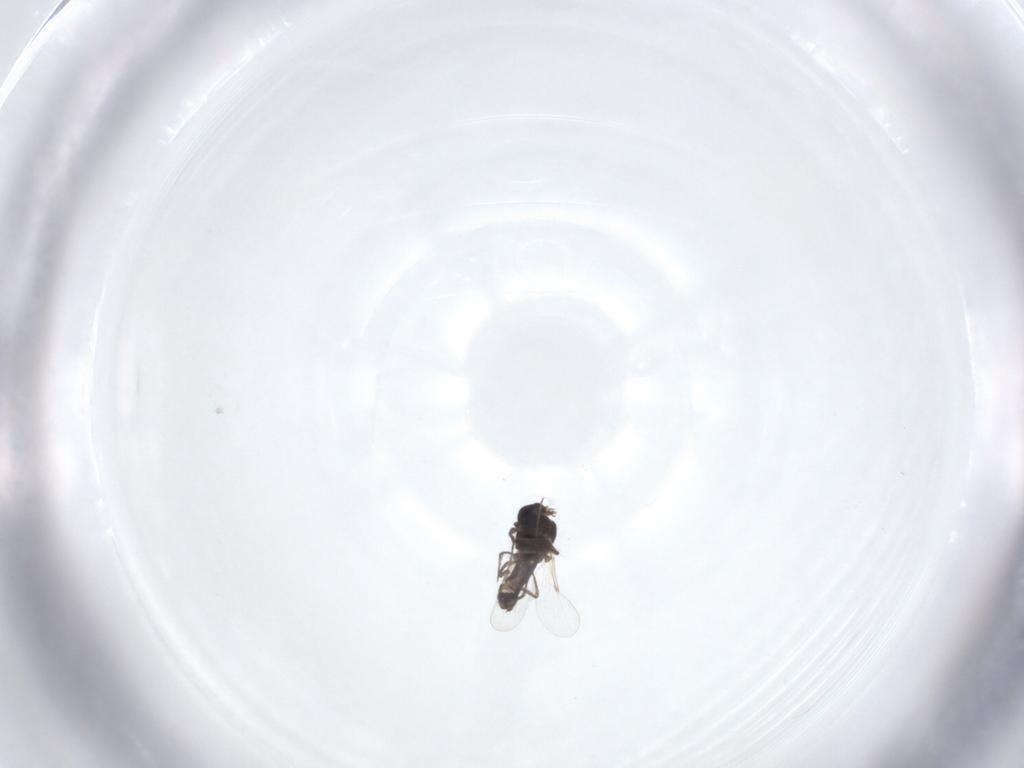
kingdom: Animalia
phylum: Arthropoda
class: Insecta
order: Diptera
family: Ceratopogonidae
